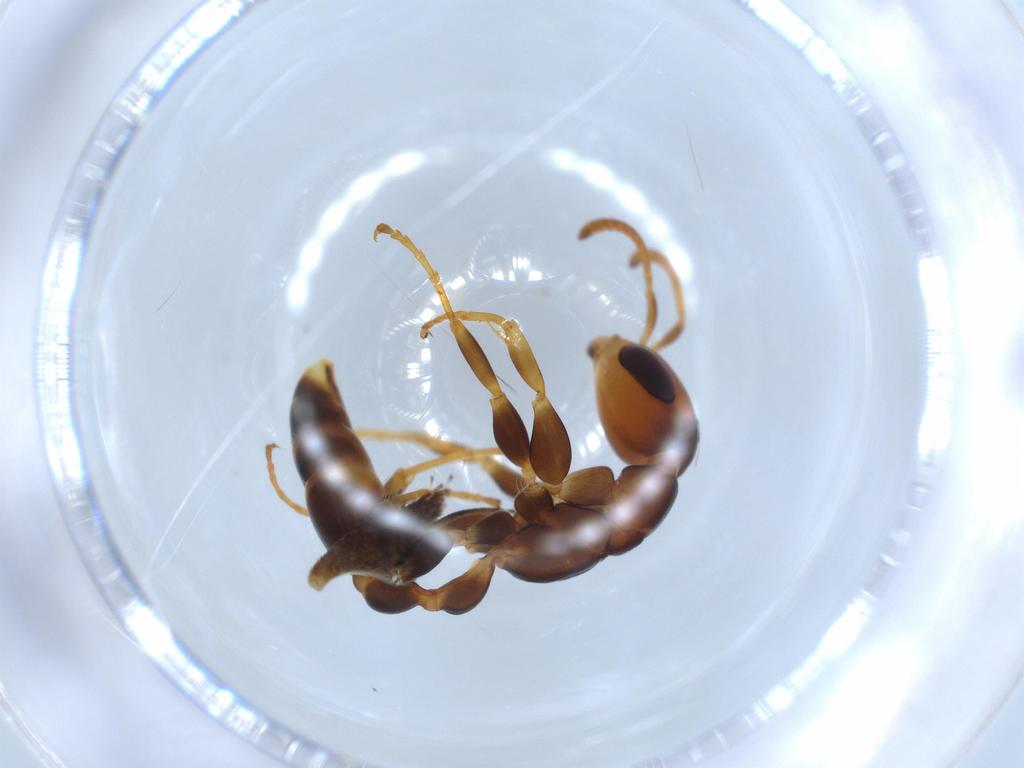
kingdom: Animalia
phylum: Arthropoda
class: Insecta
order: Hymenoptera
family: Formicidae
